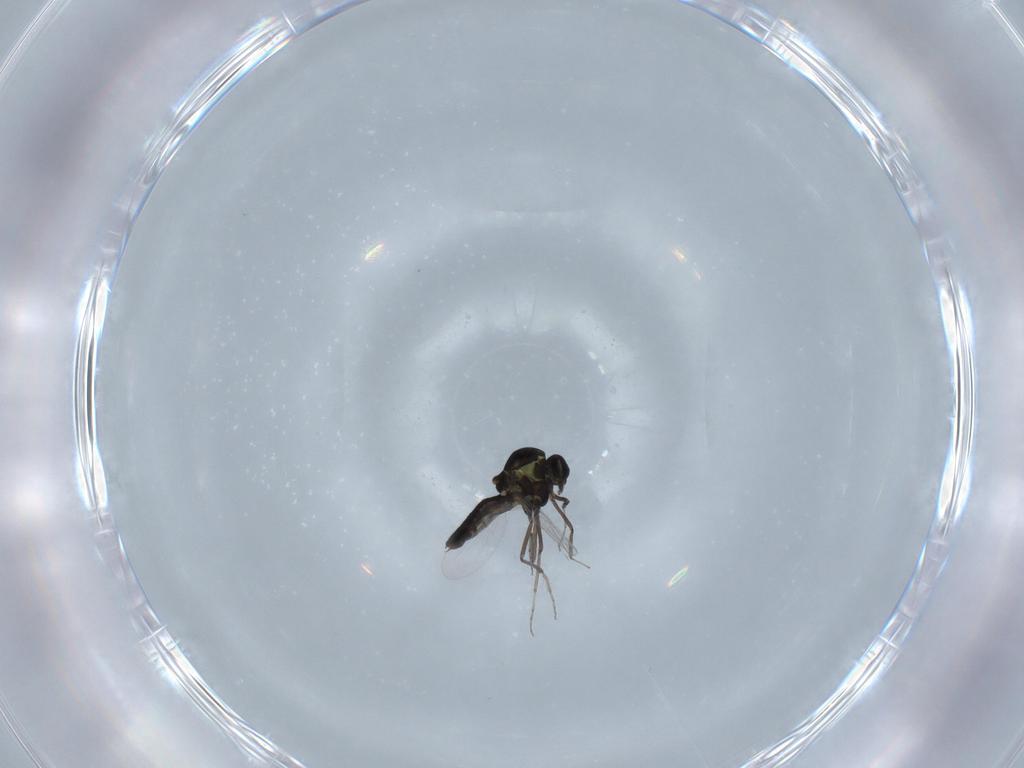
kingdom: Animalia
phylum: Arthropoda
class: Insecta
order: Diptera
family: Ceratopogonidae
